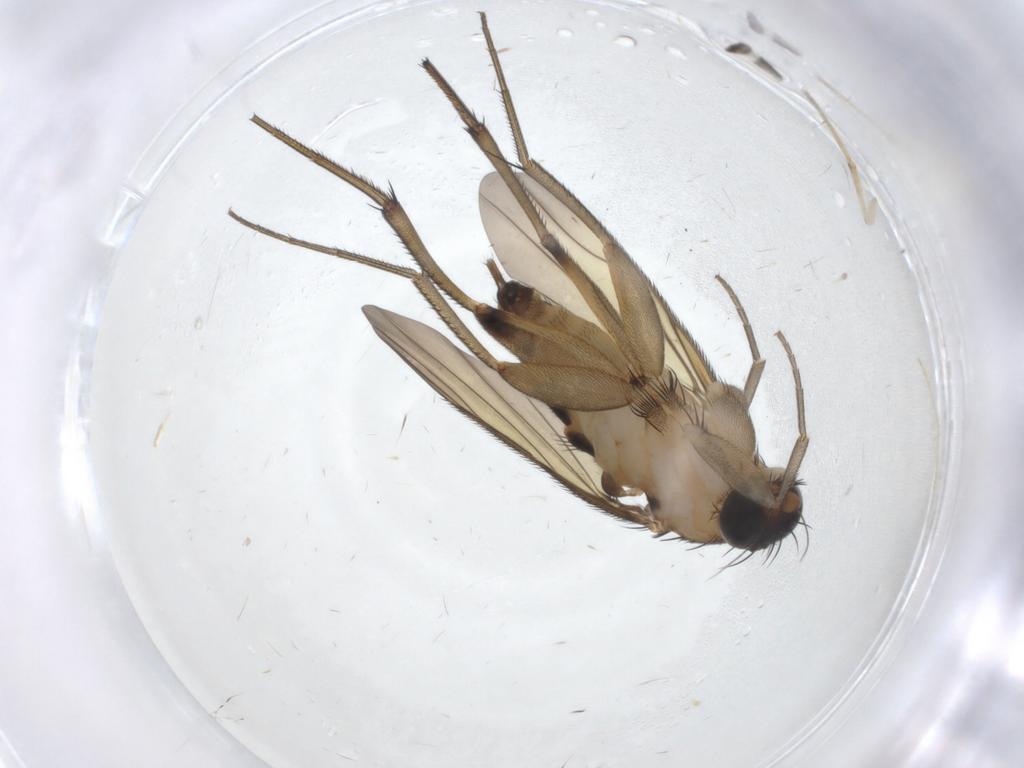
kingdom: Animalia
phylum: Arthropoda
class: Insecta
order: Diptera
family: Phoridae
